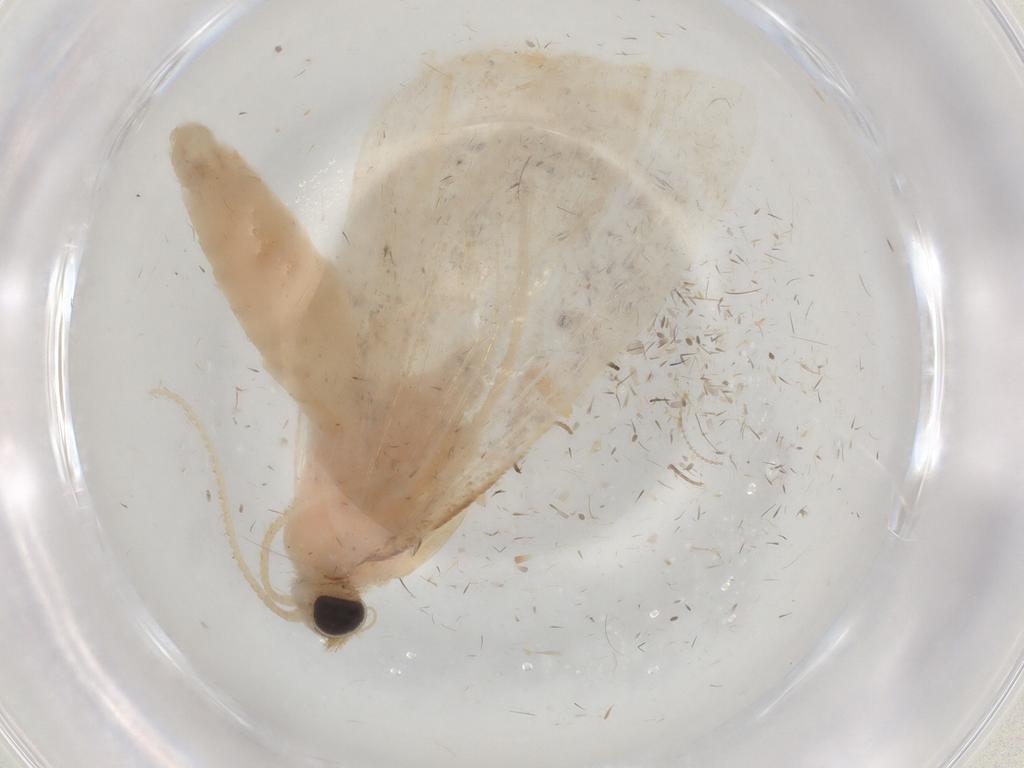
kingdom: Animalia
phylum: Arthropoda
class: Insecta
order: Lepidoptera
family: Crambidae
